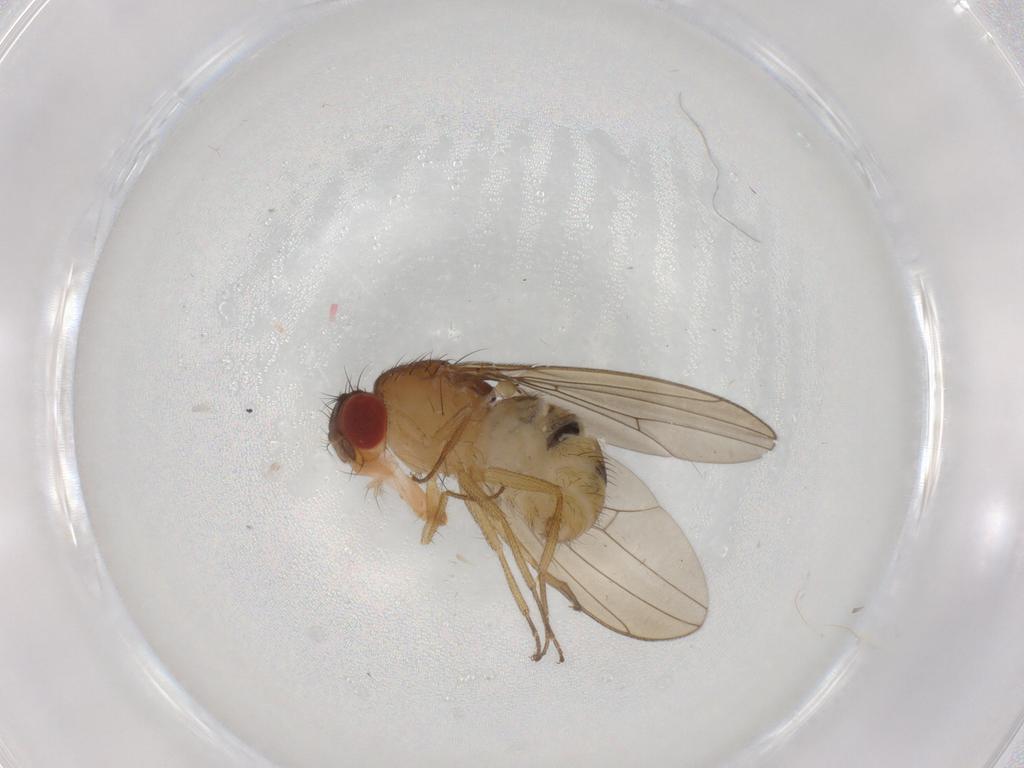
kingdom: Animalia
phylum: Arthropoda
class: Insecta
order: Diptera
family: Drosophilidae
